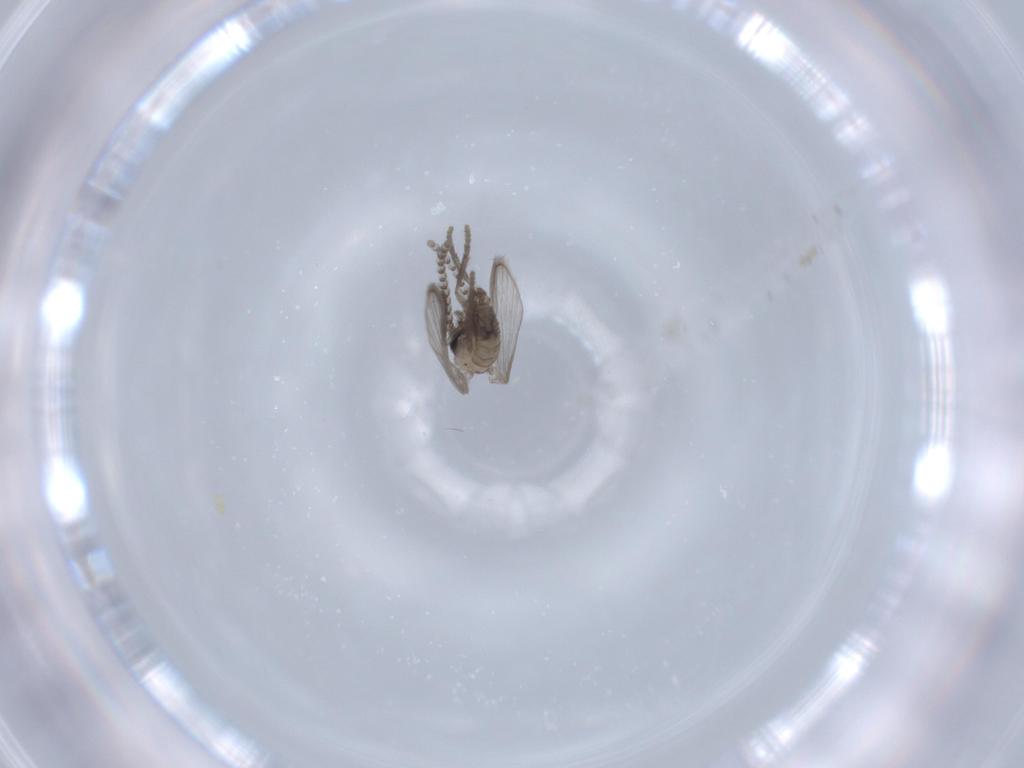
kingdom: Animalia
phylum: Arthropoda
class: Insecta
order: Diptera
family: Psychodidae
